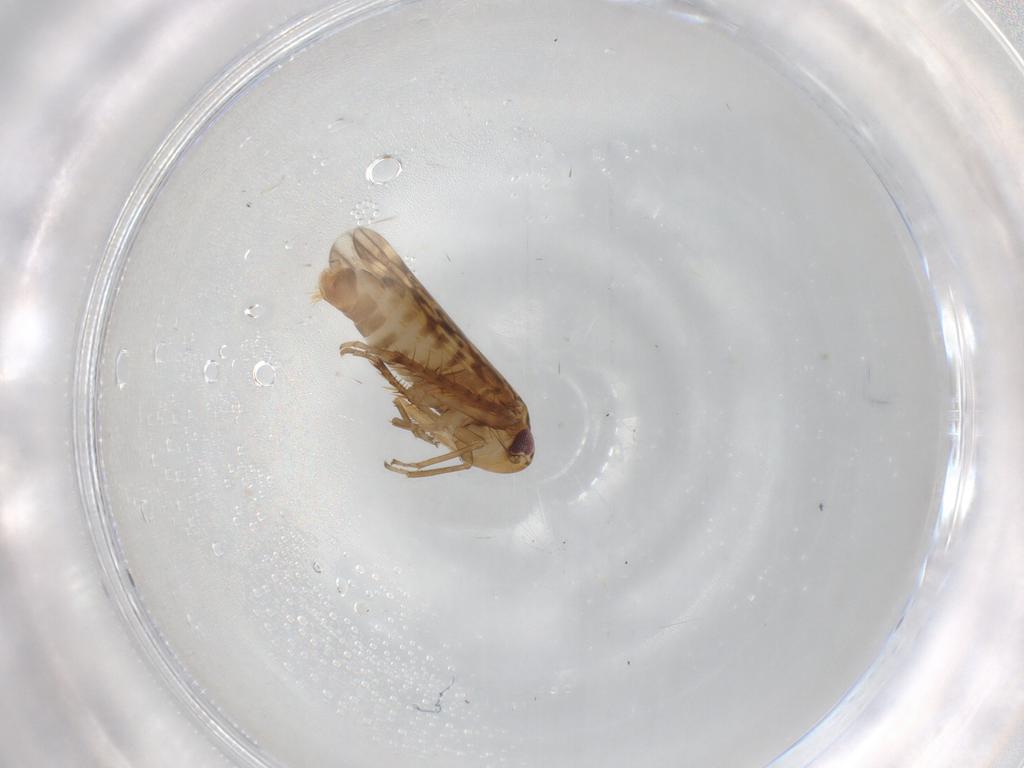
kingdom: Animalia
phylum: Arthropoda
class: Insecta
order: Hemiptera
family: Cicadellidae
